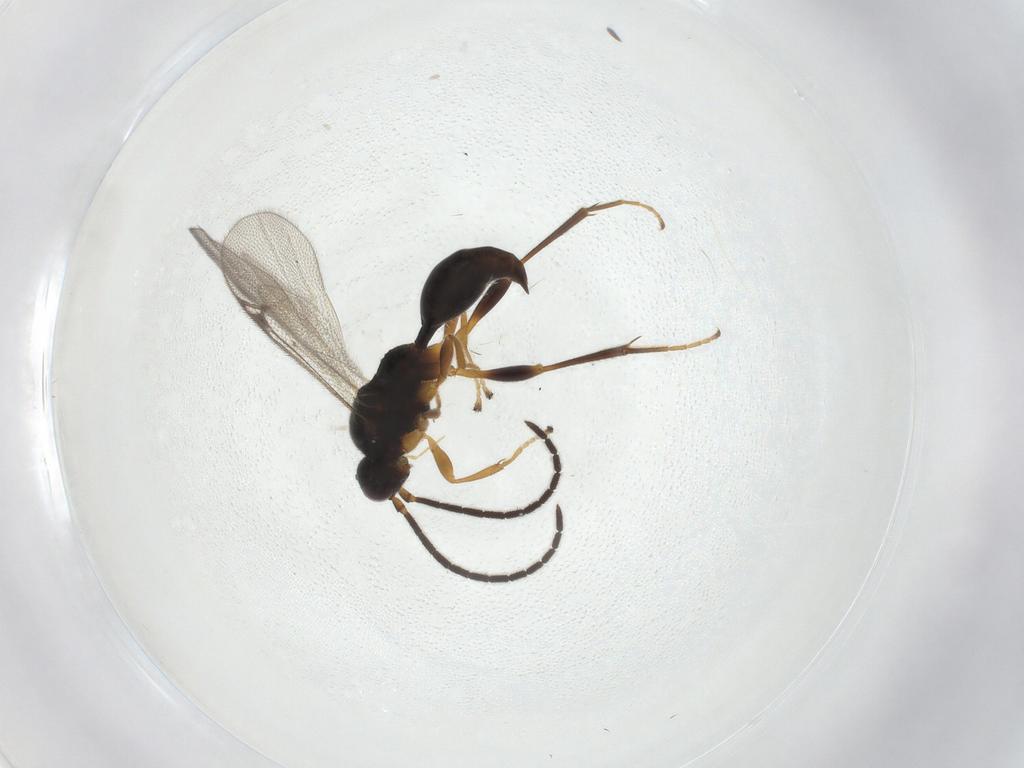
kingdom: Animalia
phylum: Arthropoda
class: Insecta
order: Hymenoptera
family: Proctotrupidae
